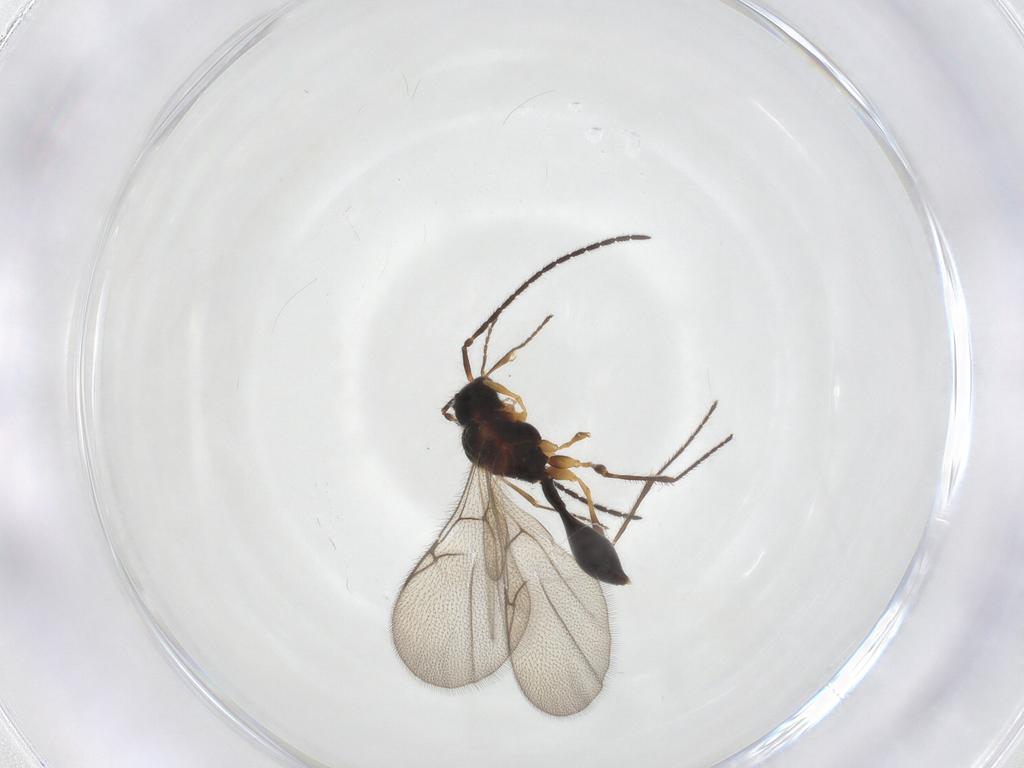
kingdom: Animalia
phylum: Arthropoda
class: Insecta
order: Hymenoptera
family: Diapriidae
